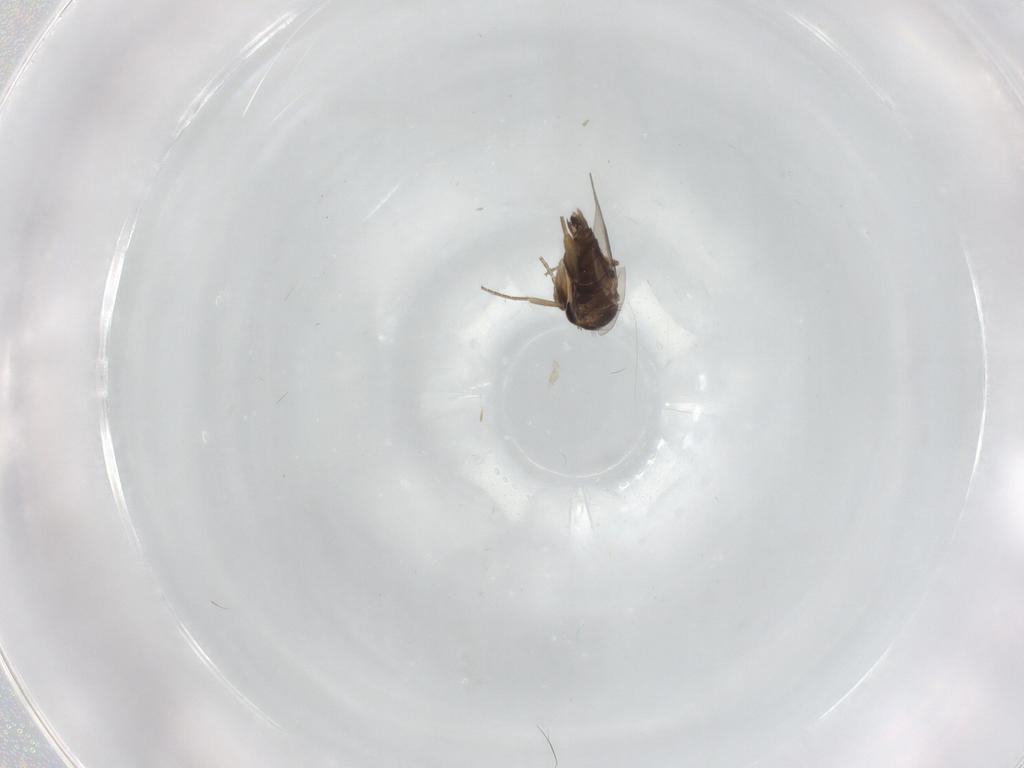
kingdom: Animalia
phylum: Arthropoda
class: Insecta
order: Diptera
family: Phoridae
